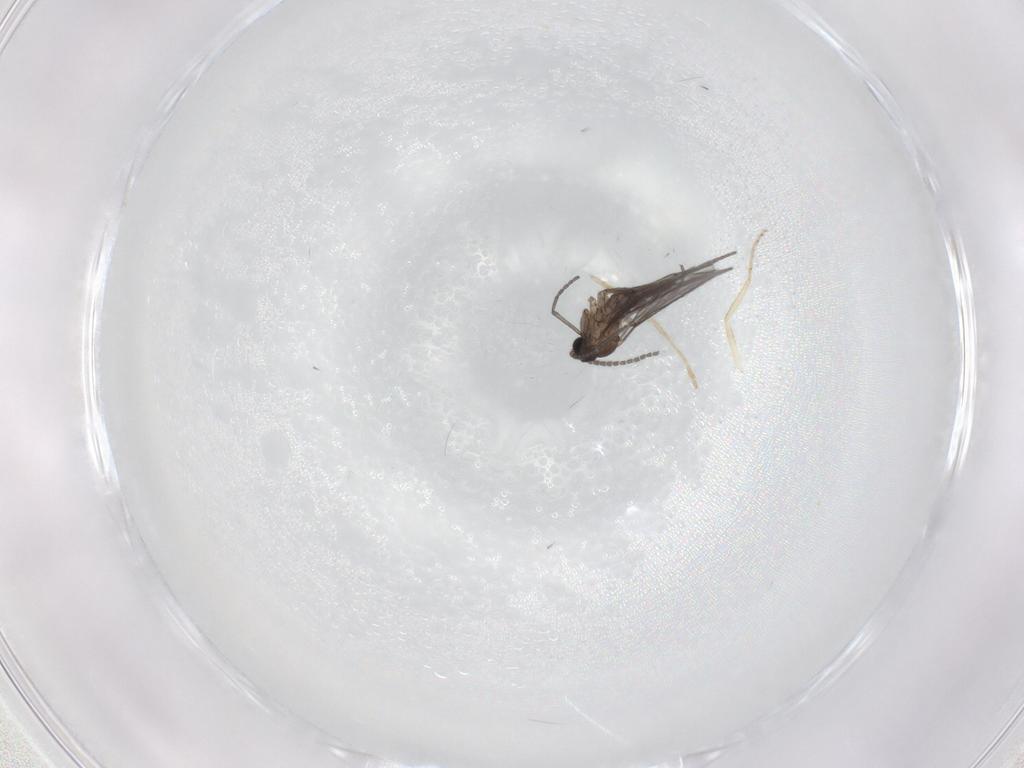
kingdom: Animalia
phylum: Arthropoda
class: Insecta
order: Diptera
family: Sciaridae
